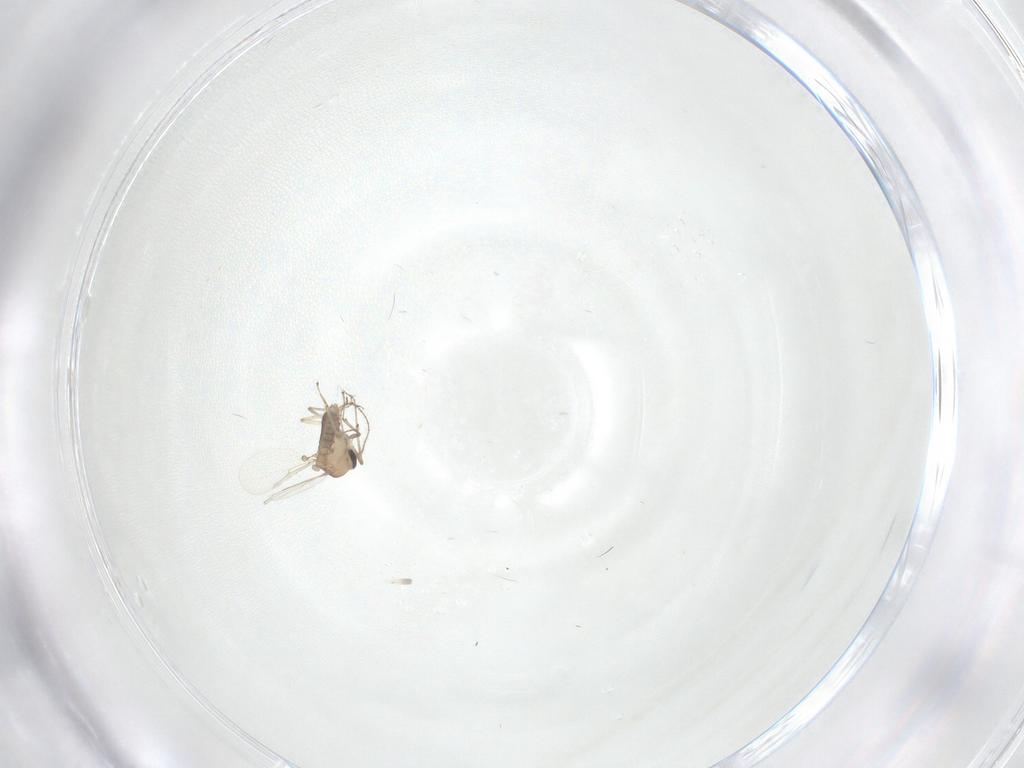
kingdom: Animalia
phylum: Arthropoda
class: Insecta
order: Diptera
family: Ceratopogonidae
